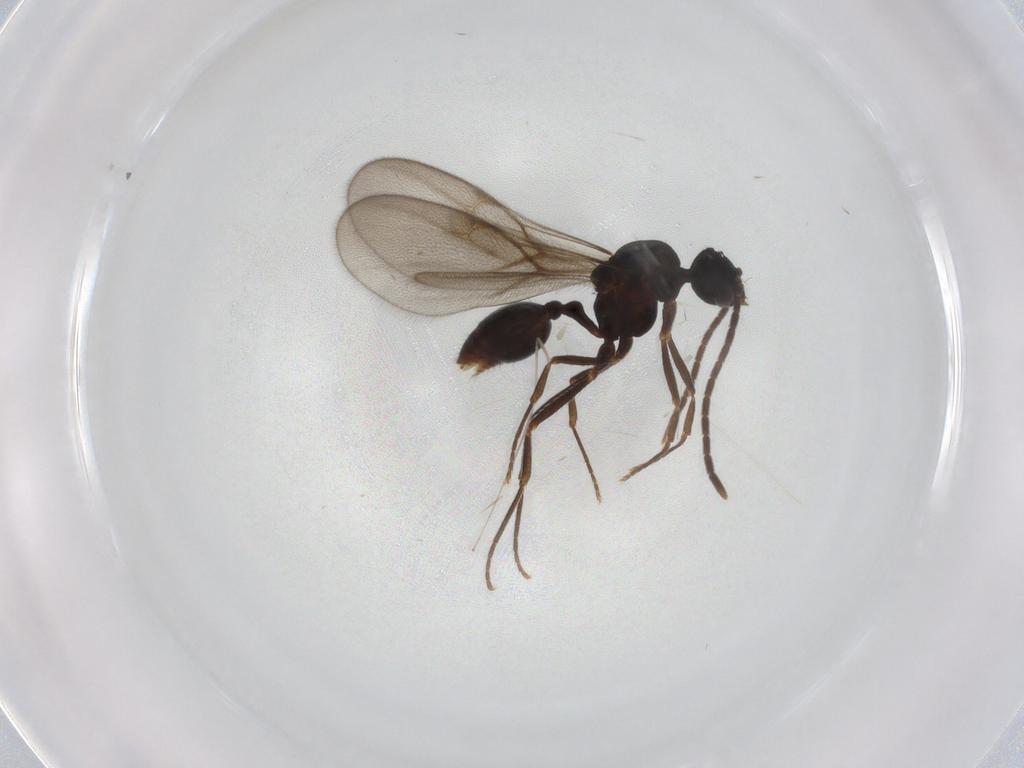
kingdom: Animalia
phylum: Arthropoda
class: Insecta
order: Hymenoptera
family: Formicidae
